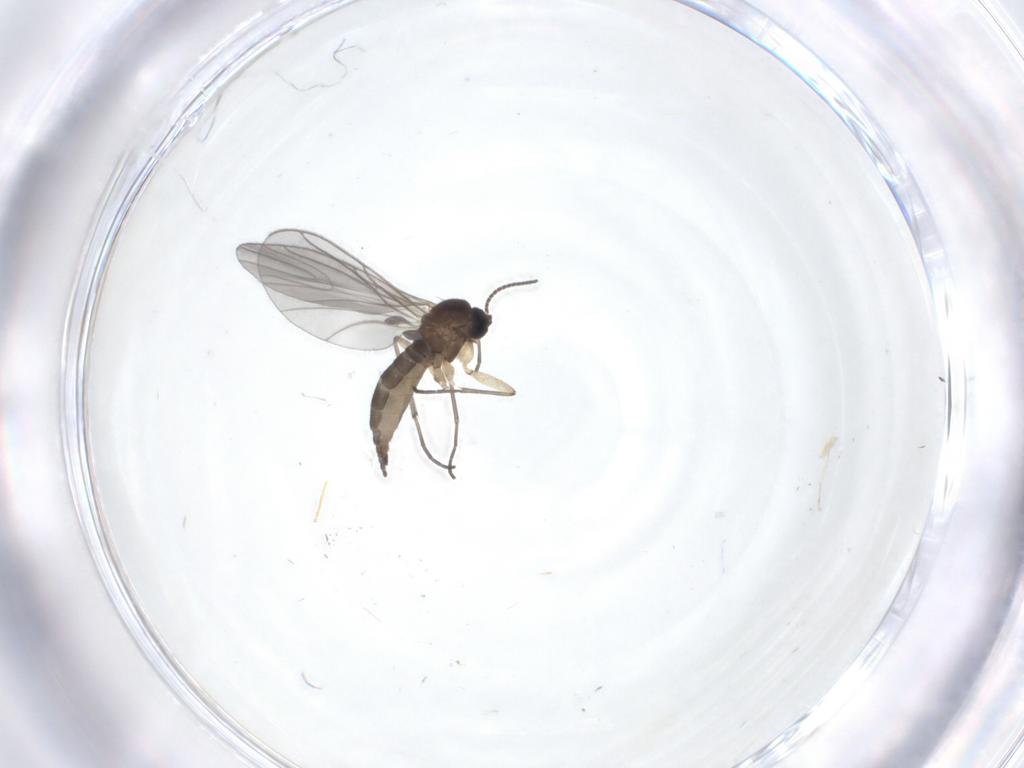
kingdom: Animalia
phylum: Arthropoda
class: Insecta
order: Diptera
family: Sciaridae
